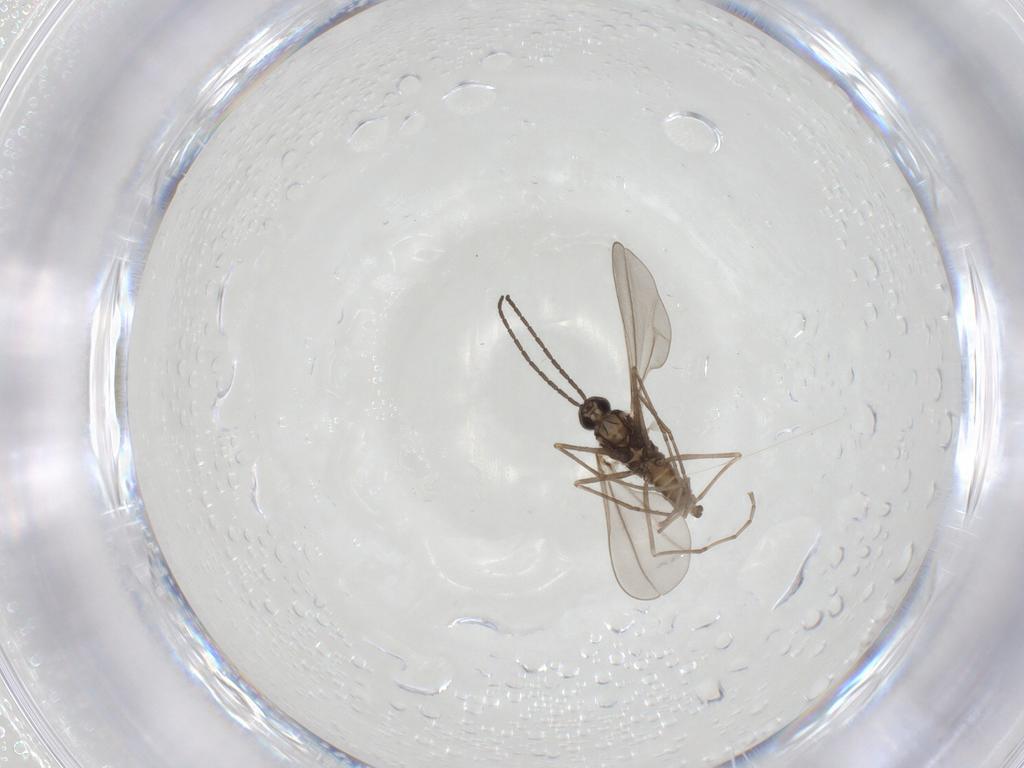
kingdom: Animalia
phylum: Arthropoda
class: Insecta
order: Diptera
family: Cecidomyiidae
